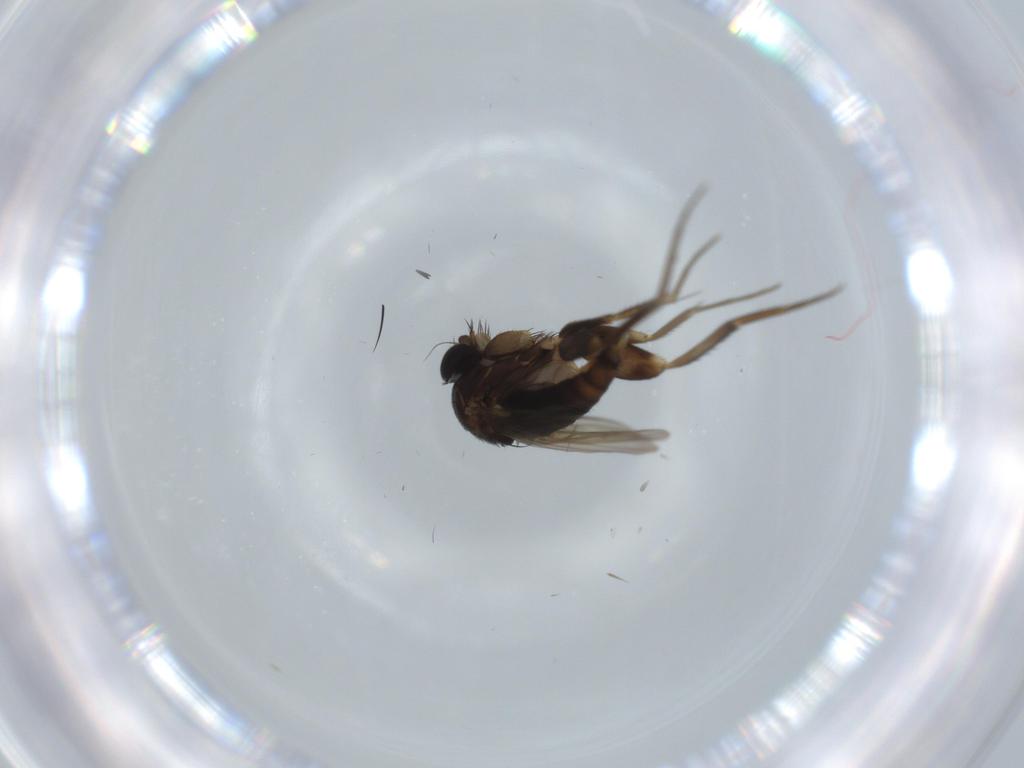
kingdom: Animalia
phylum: Arthropoda
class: Insecta
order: Diptera
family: Phoridae
